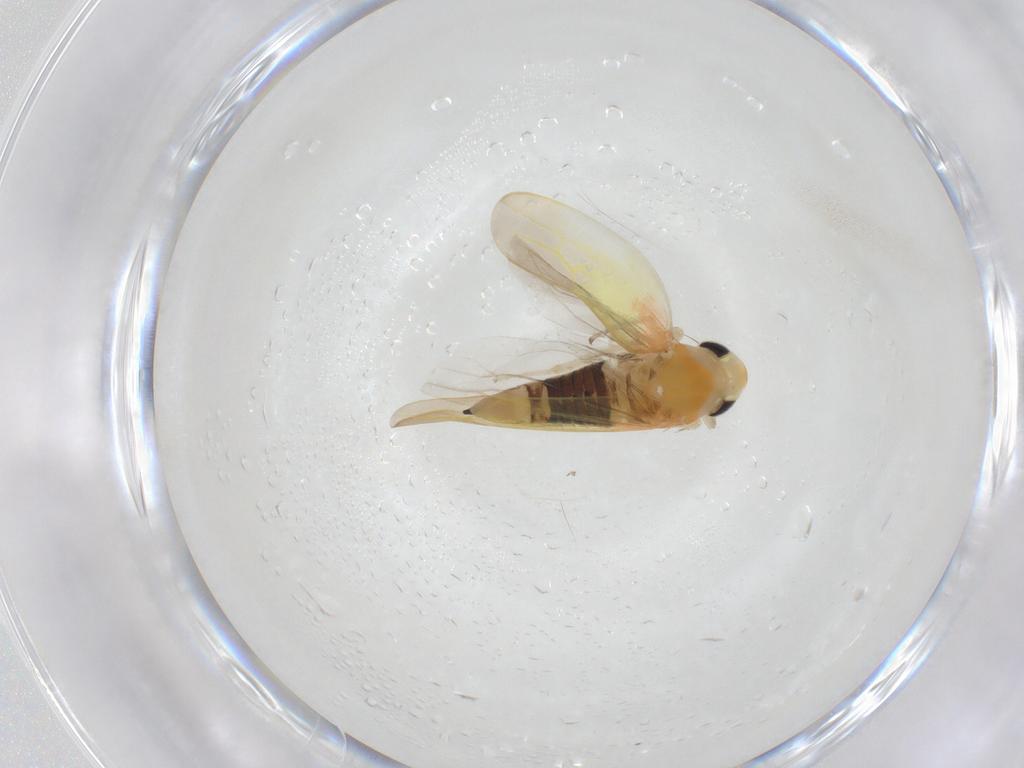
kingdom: Animalia
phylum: Arthropoda
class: Insecta
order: Hemiptera
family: Cicadellidae
